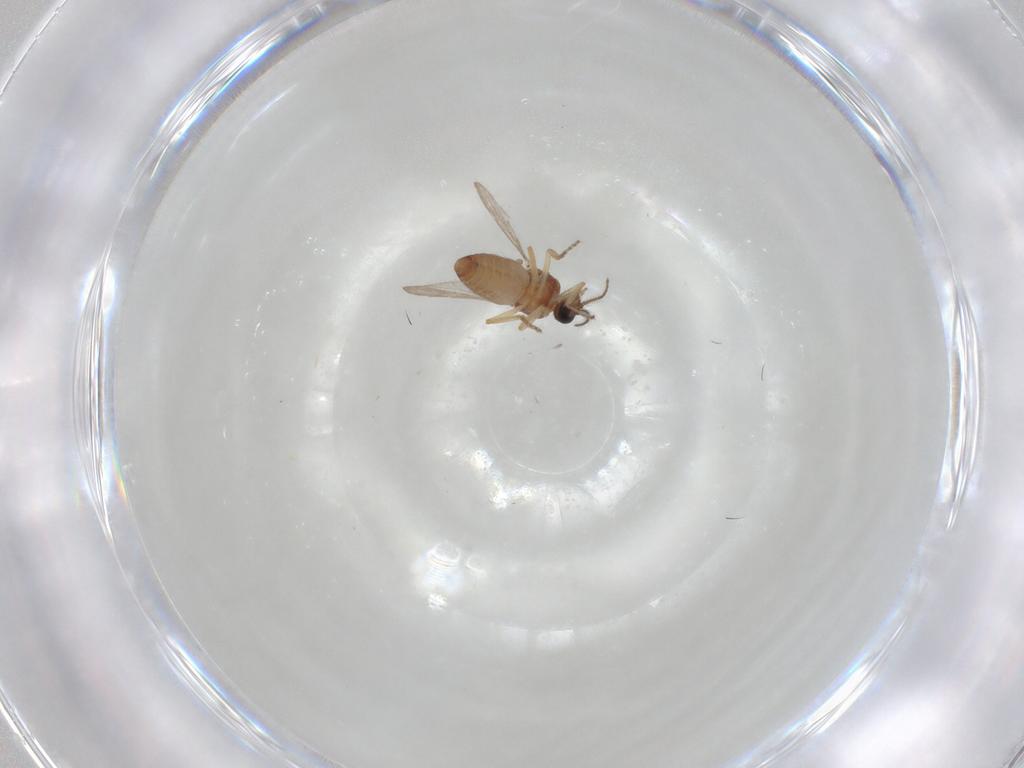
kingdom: Animalia
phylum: Arthropoda
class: Insecta
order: Diptera
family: Ceratopogonidae
